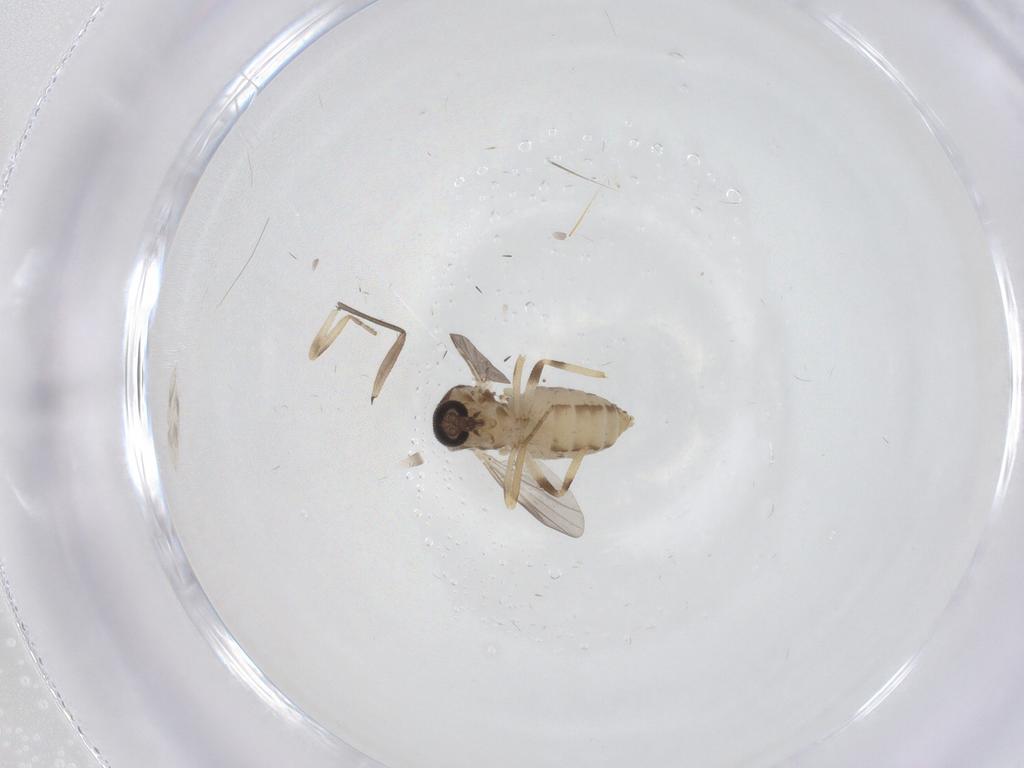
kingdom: Animalia
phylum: Arthropoda
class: Insecta
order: Diptera
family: Ceratopogonidae
